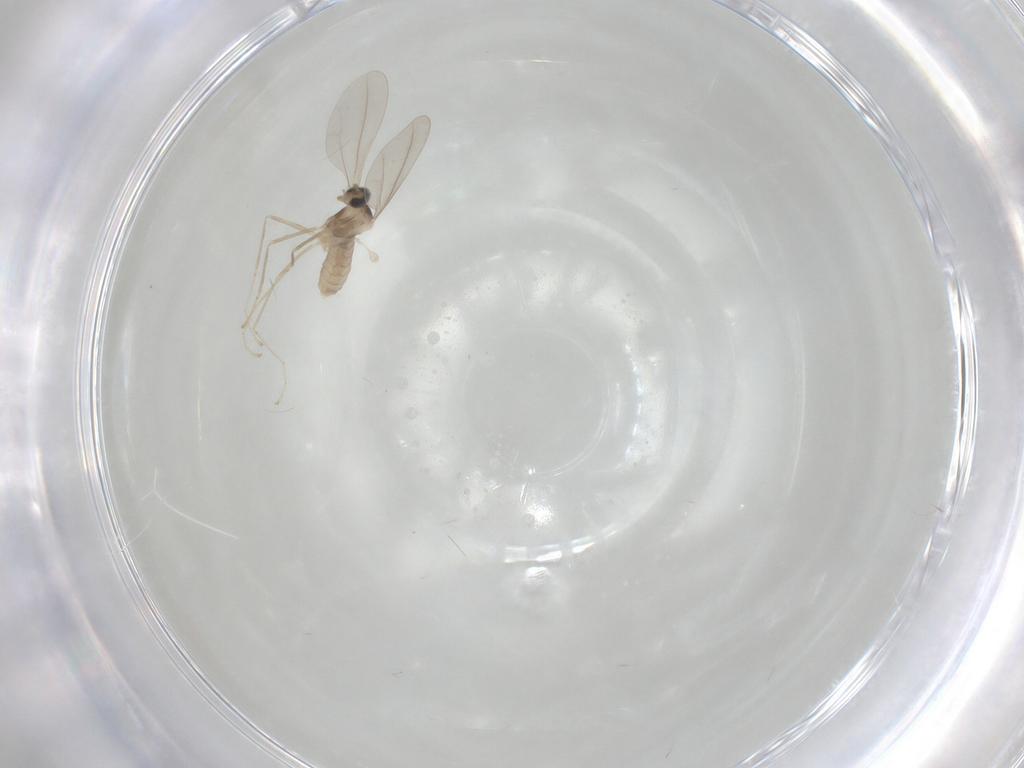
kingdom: Animalia
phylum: Arthropoda
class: Insecta
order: Diptera
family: Cecidomyiidae
